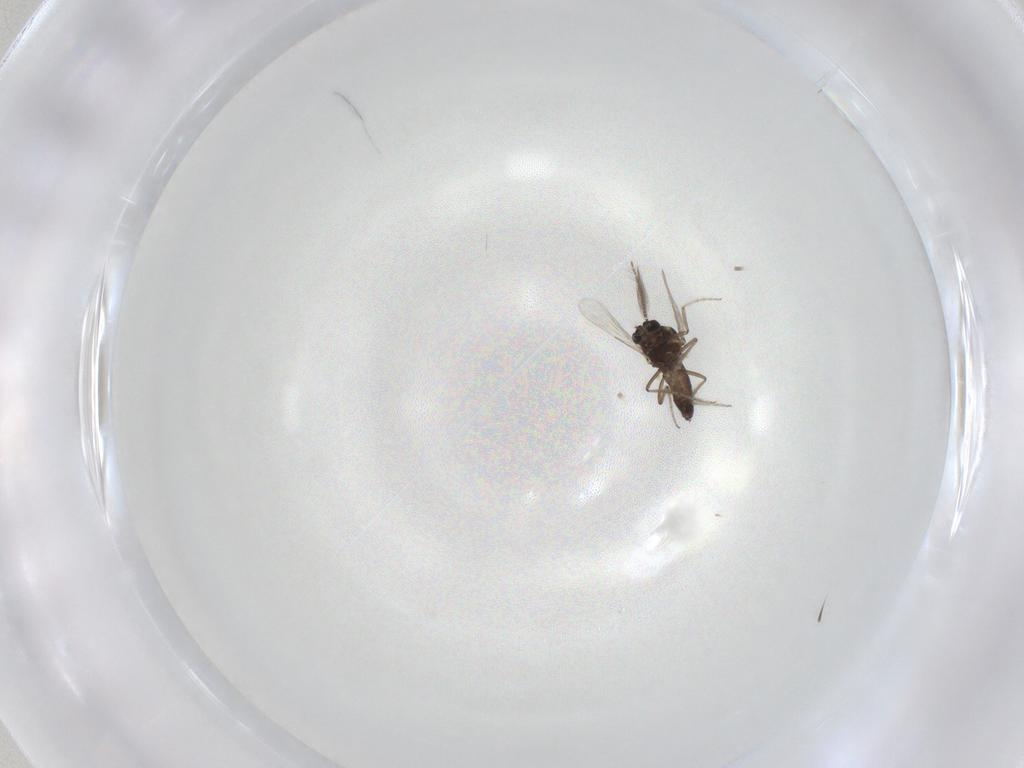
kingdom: Animalia
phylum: Arthropoda
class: Insecta
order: Diptera
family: Ceratopogonidae
